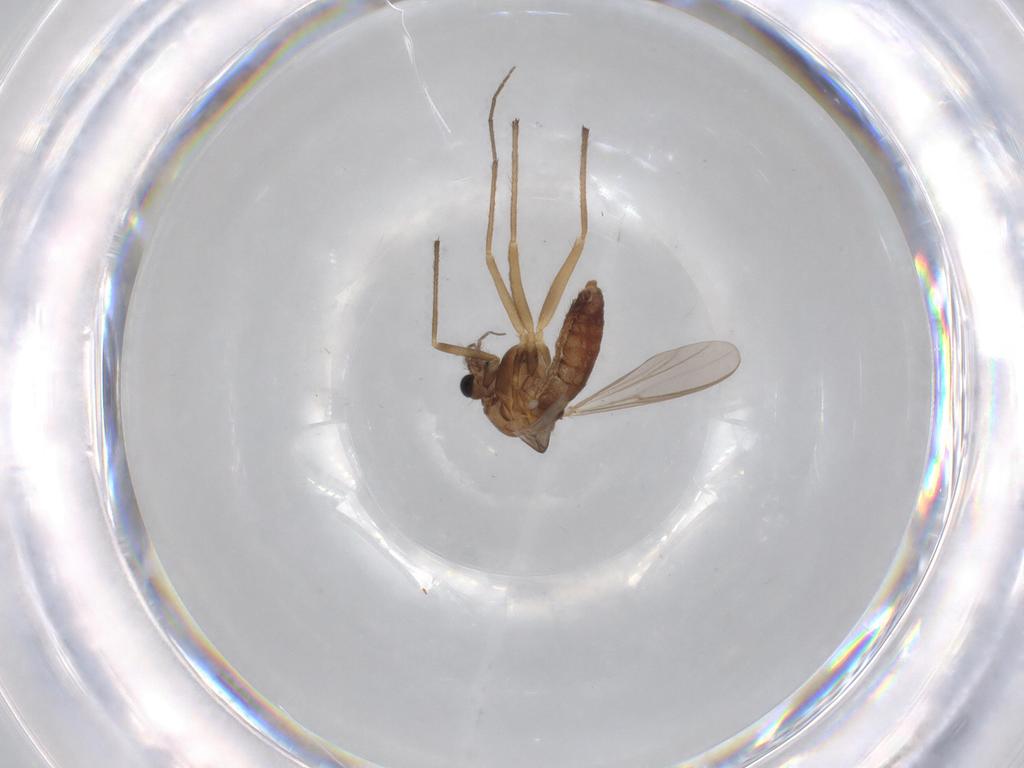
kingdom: Animalia
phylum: Arthropoda
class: Insecta
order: Diptera
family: Chironomidae
